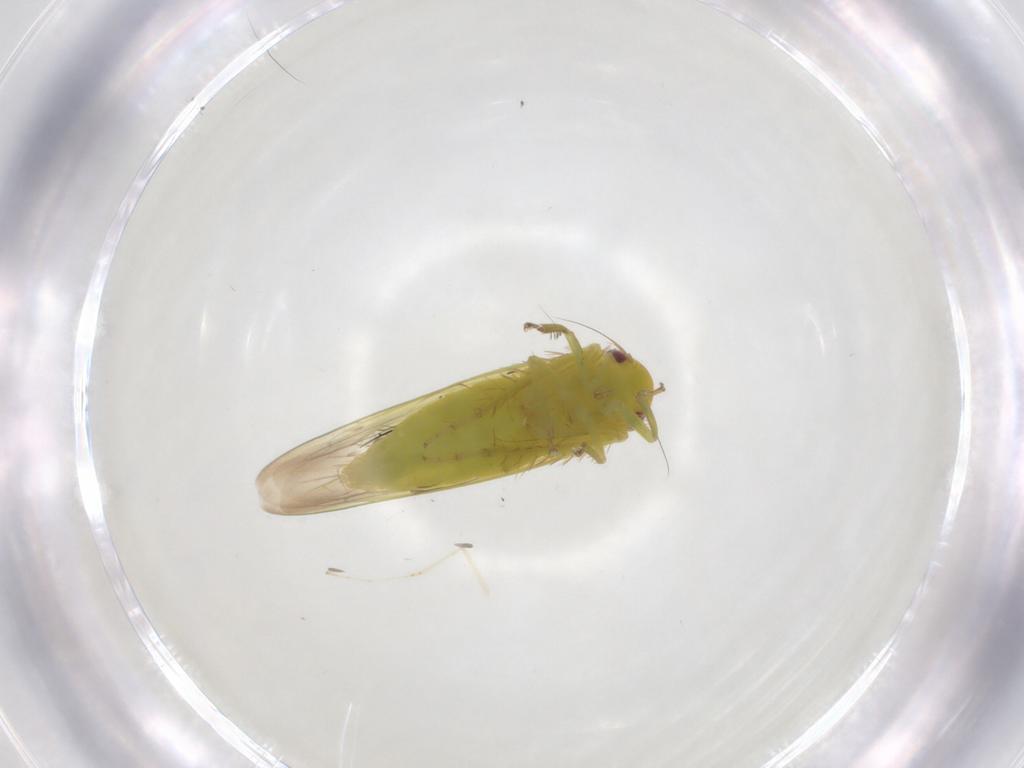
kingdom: Animalia
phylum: Arthropoda
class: Insecta
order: Hemiptera
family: Cicadellidae
